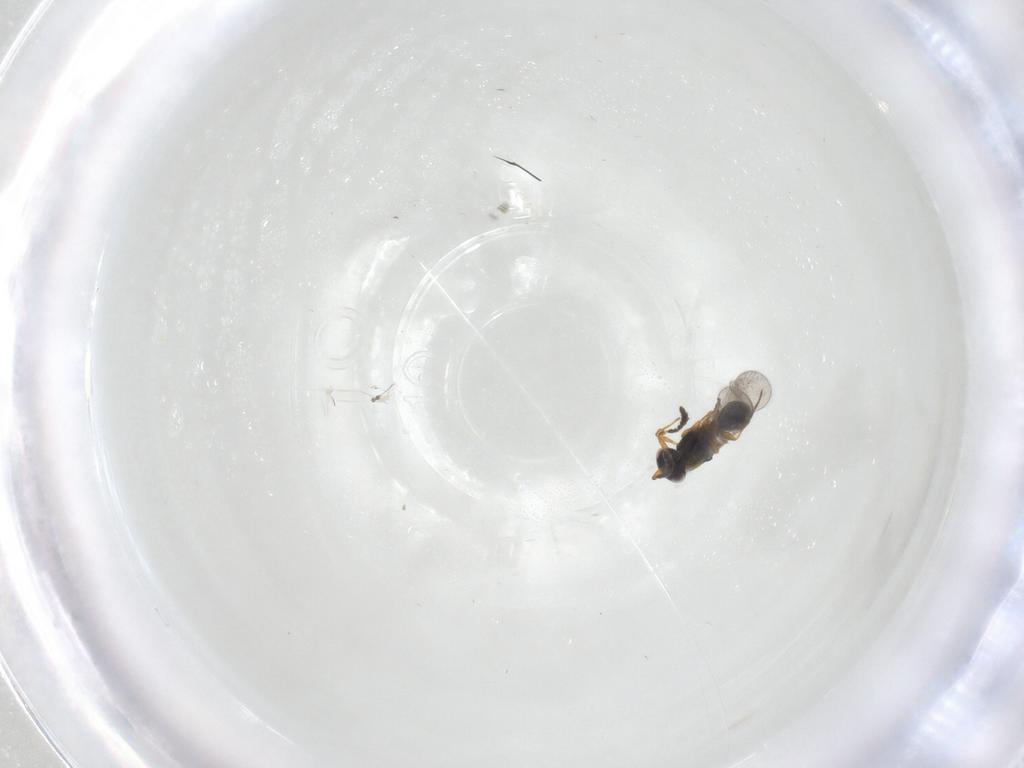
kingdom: Animalia
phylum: Arthropoda
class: Insecta
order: Hymenoptera
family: Platygastridae
